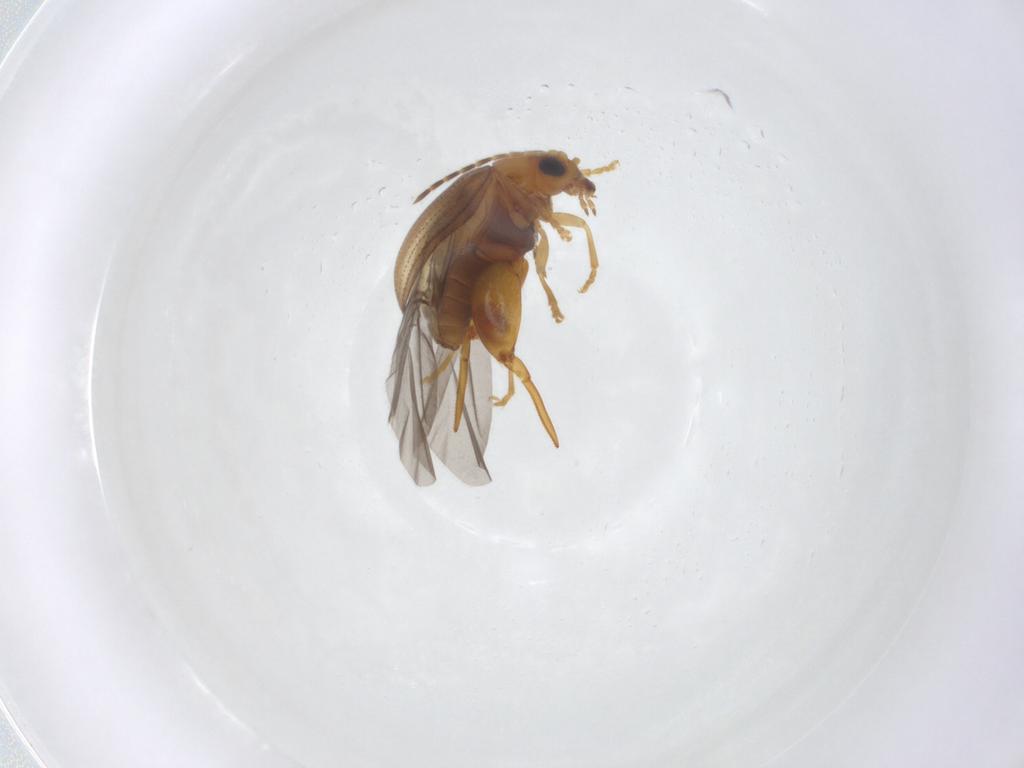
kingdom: Animalia
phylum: Arthropoda
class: Insecta
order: Coleoptera
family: Chrysomelidae
